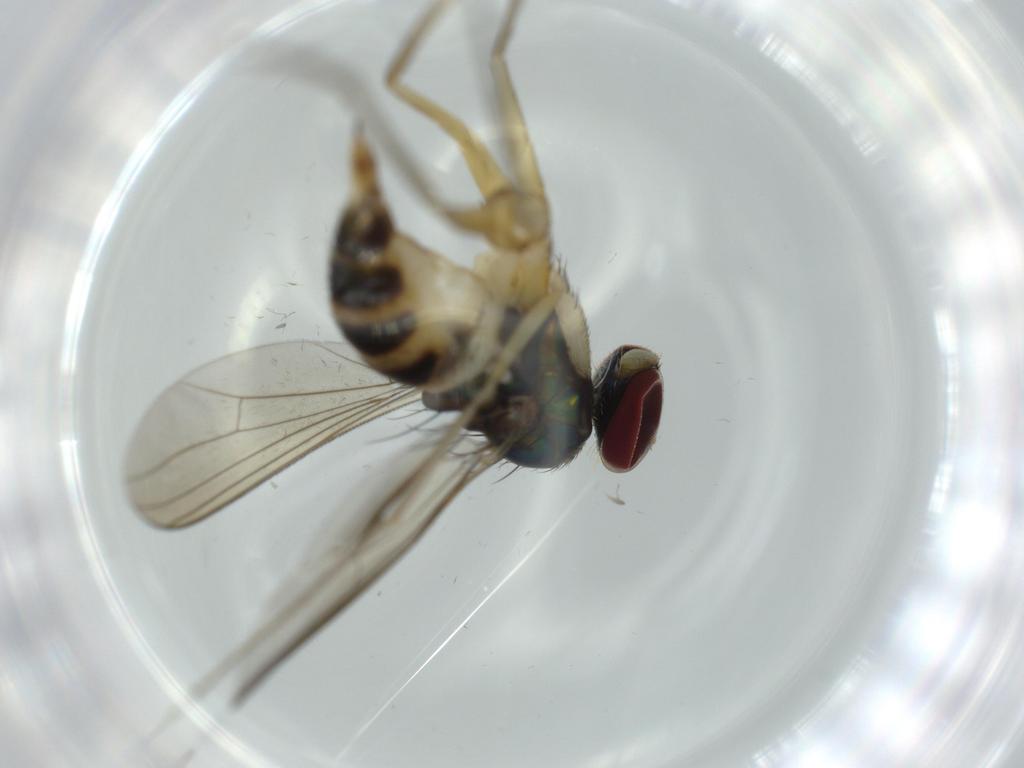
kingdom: Animalia
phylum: Arthropoda
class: Insecta
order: Diptera
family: Dolichopodidae
